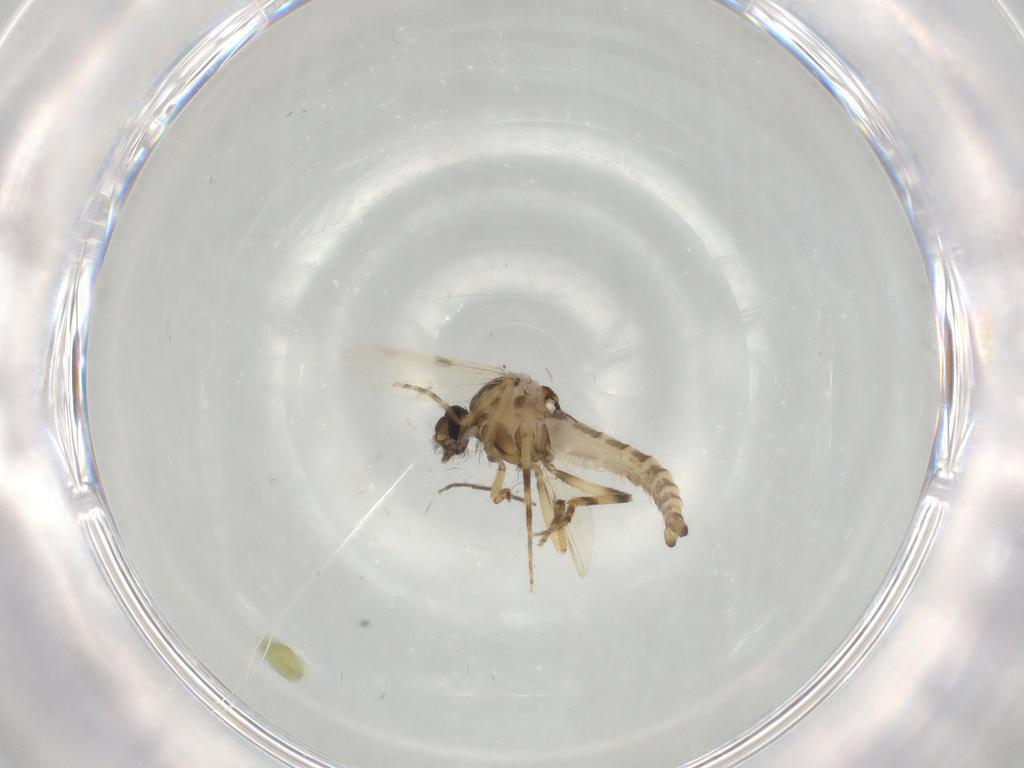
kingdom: Animalia
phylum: Arthropoda
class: Insecta
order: Diptera
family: Ceratopogonidae
